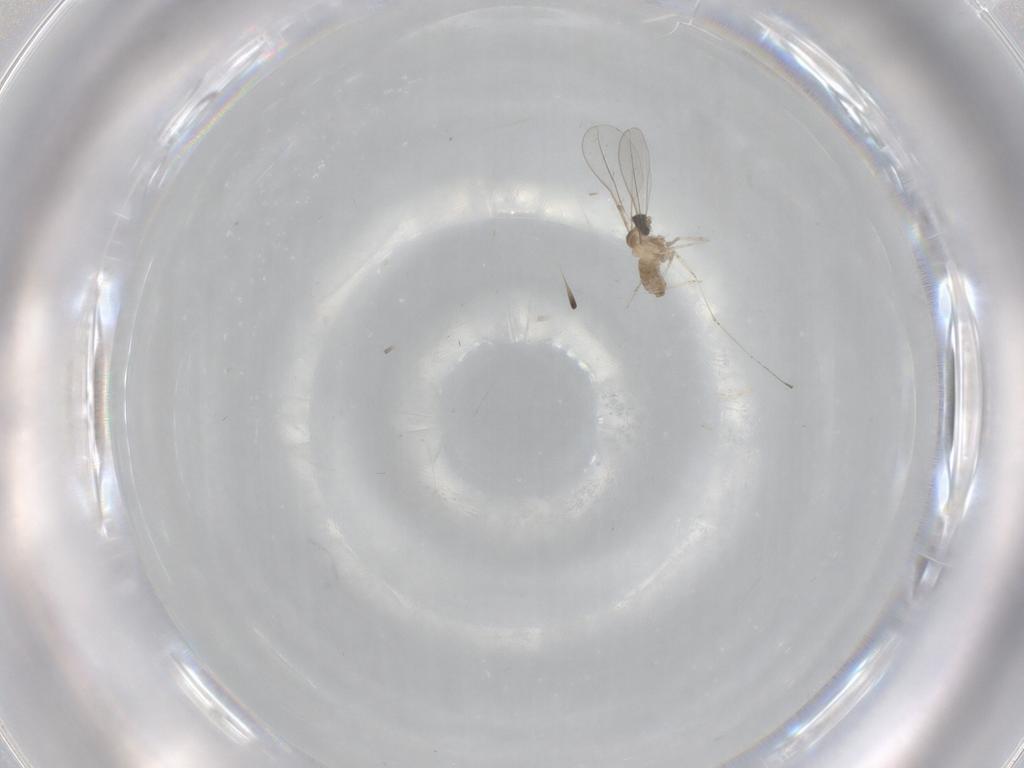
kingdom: Animalia
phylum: Arthropoda
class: Insecta
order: Diptera
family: Cecidomyiidae
